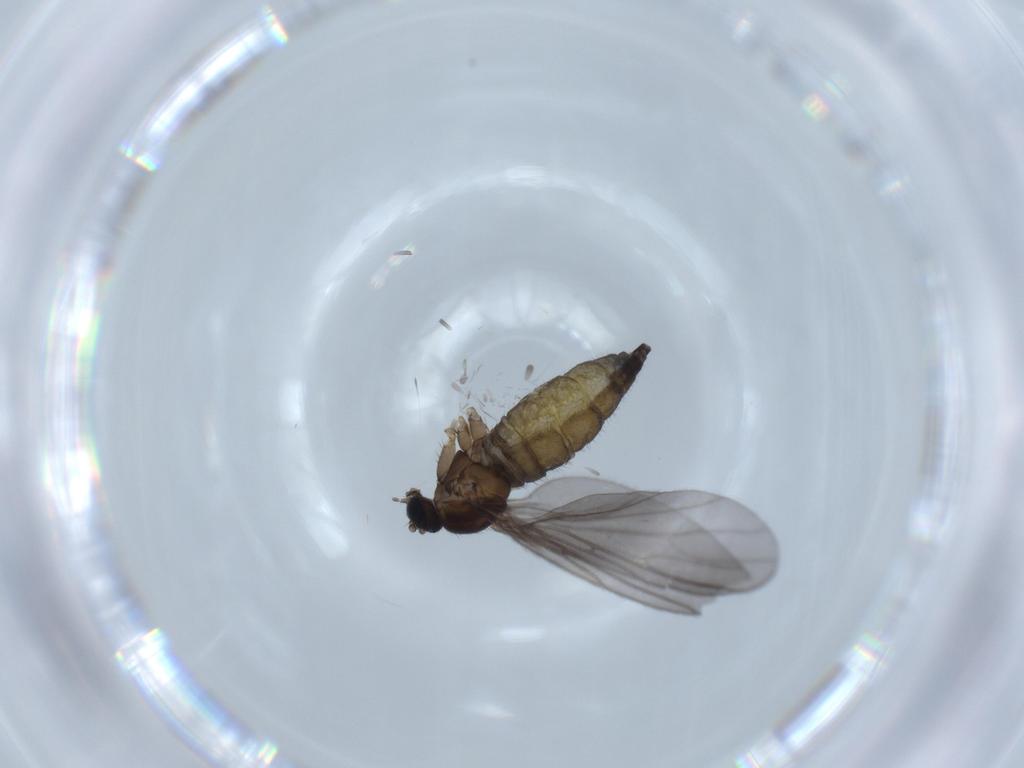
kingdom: Animalia
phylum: Arthropoda
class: Insecta
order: Diptera
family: Sciaridae
